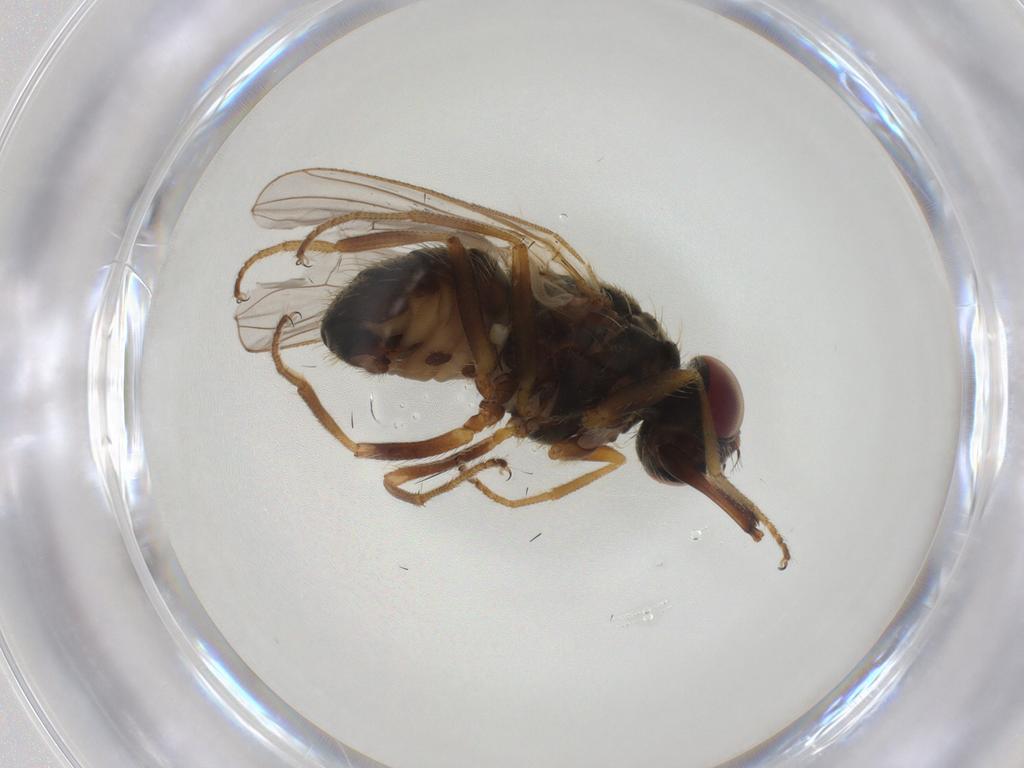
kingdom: Animalia
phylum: Arthropoda
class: Insecta
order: Diptera
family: Muscidae
